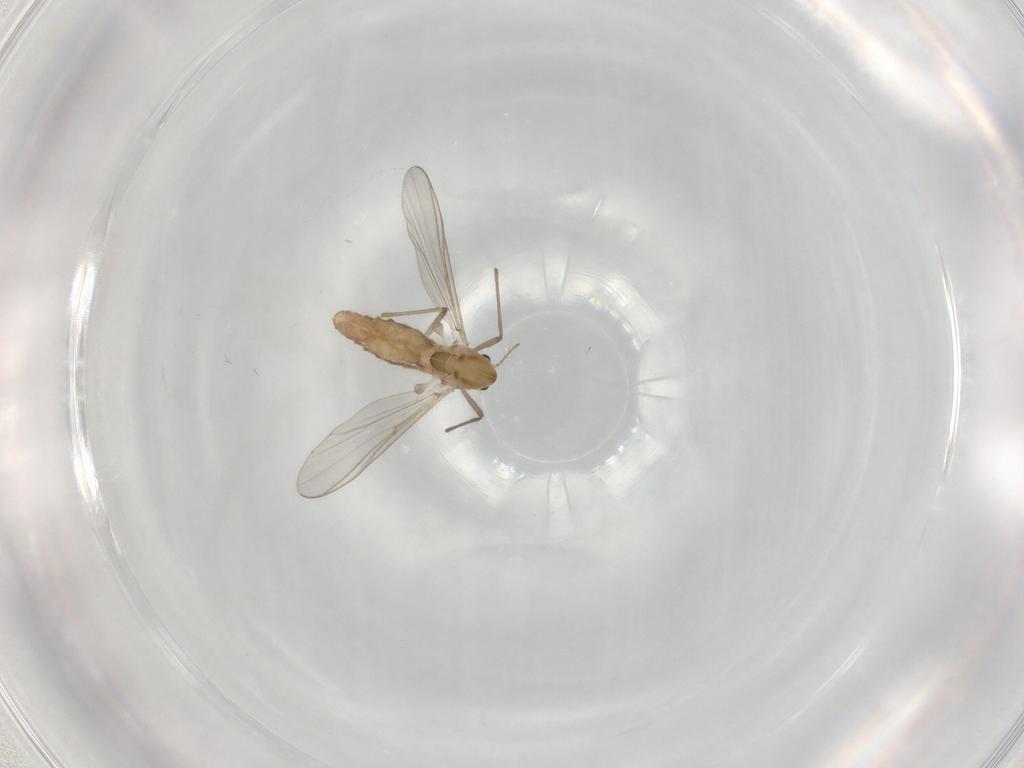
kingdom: Animalia
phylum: Arthropoda
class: Insecta
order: Diptera
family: Chironomidae
